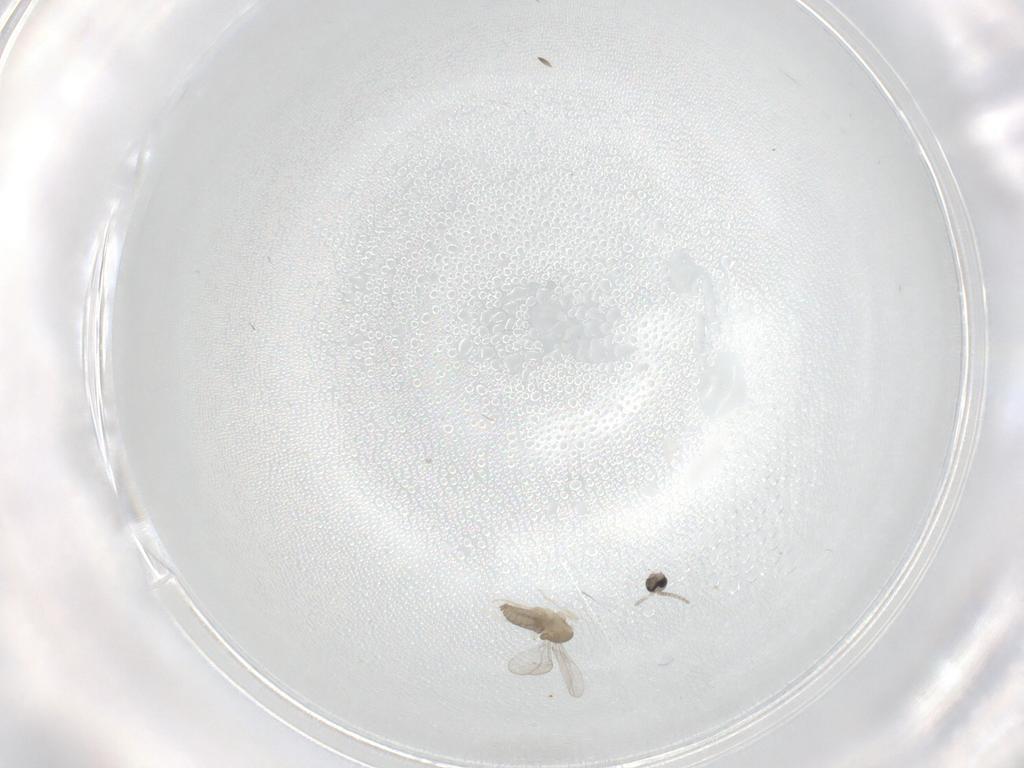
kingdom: Animalia
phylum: Arthropoda
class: Insecta
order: Diptera
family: Cecidomyiidae
